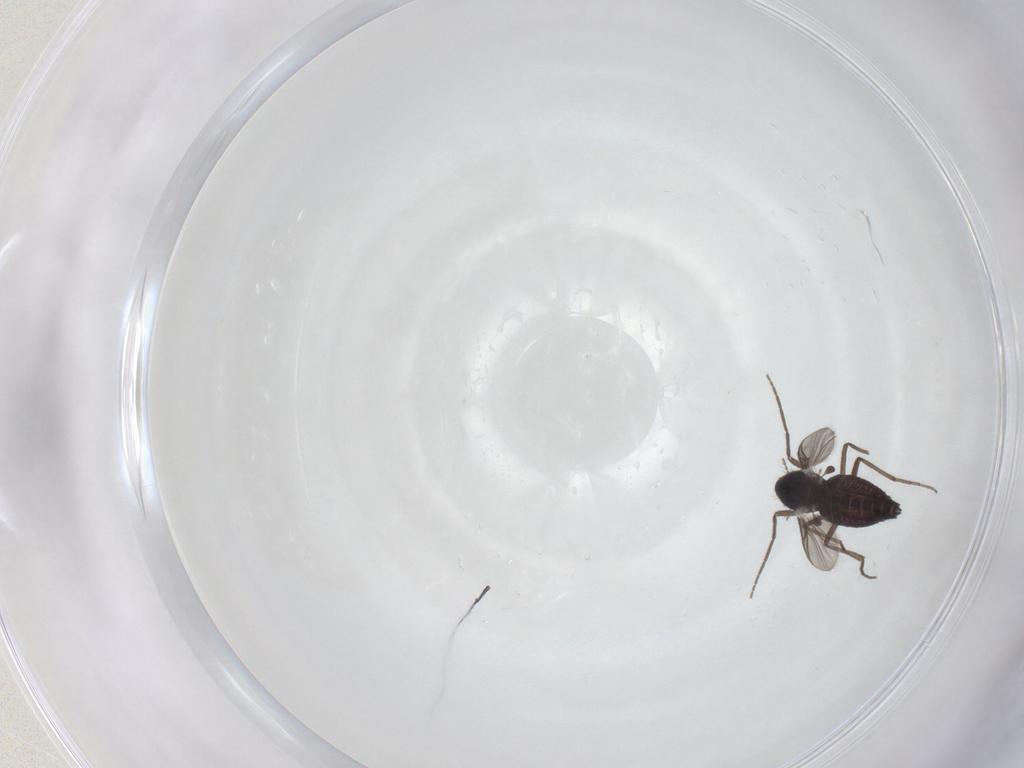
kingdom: Animalia
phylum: Arthropoda
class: Insecta
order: Diptera
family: Chironomidae
